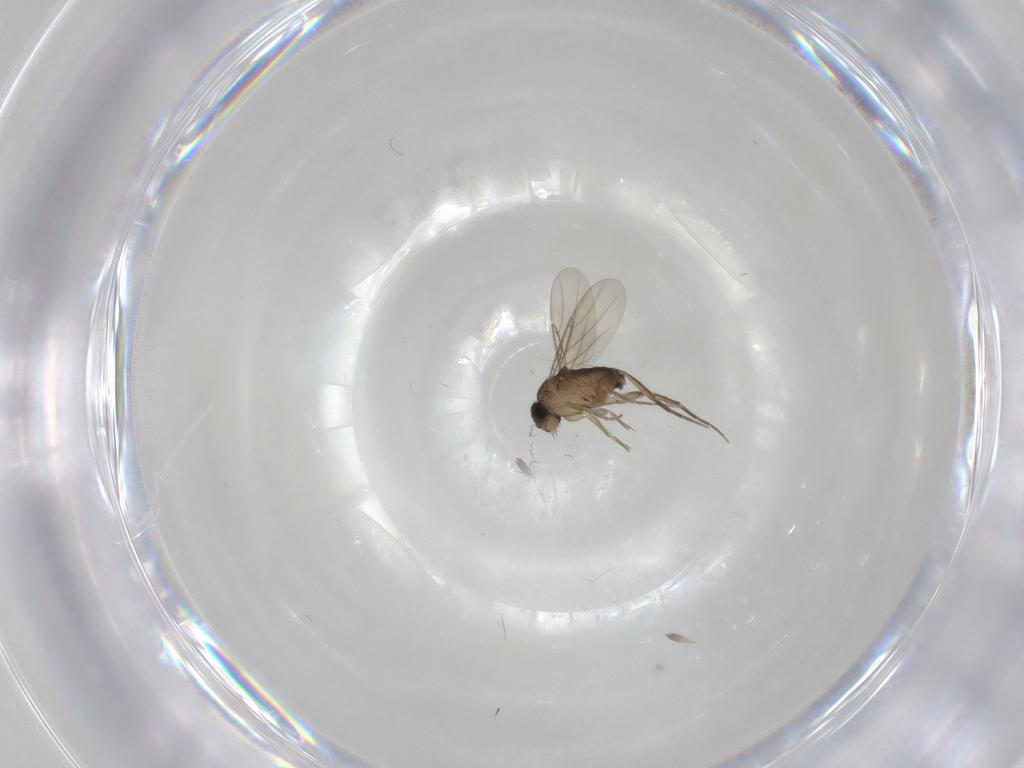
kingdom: Animalia
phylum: Arthropoda
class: Insecta
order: Diptera
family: Phoridae
